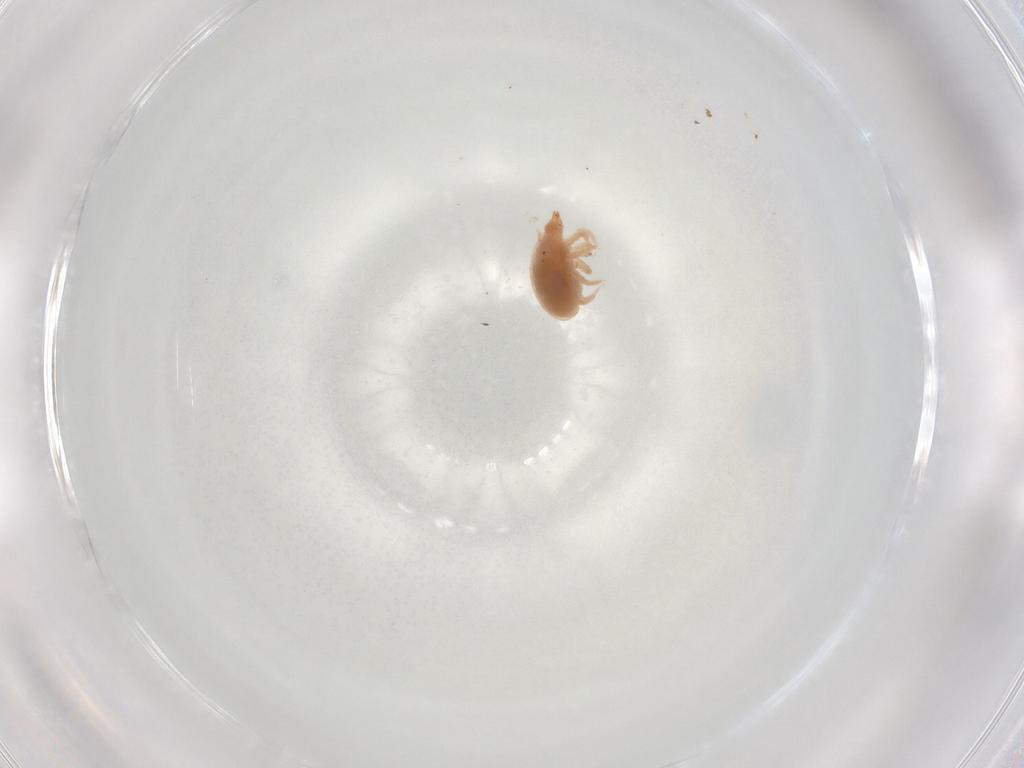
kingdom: Animalia
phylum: Arthropoda
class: Arachnida
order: Trombidiformes
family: Bdellidae
